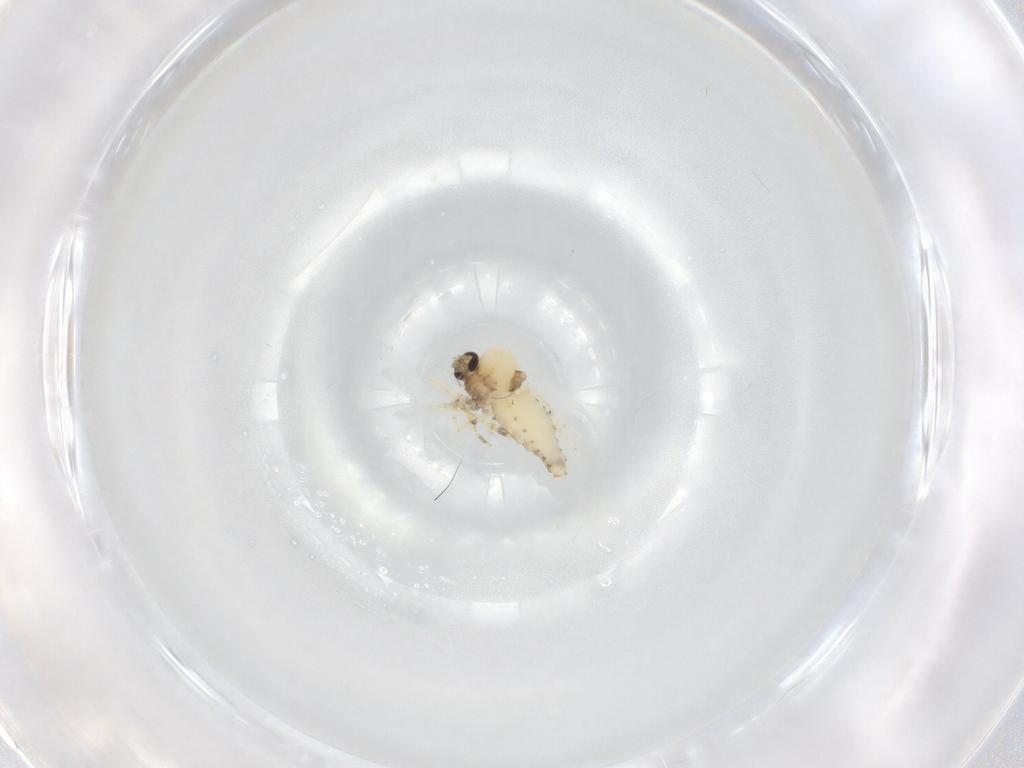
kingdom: Animalia
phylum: Arthropoda
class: Insecta
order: Diptera
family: Ceratopogonidae
